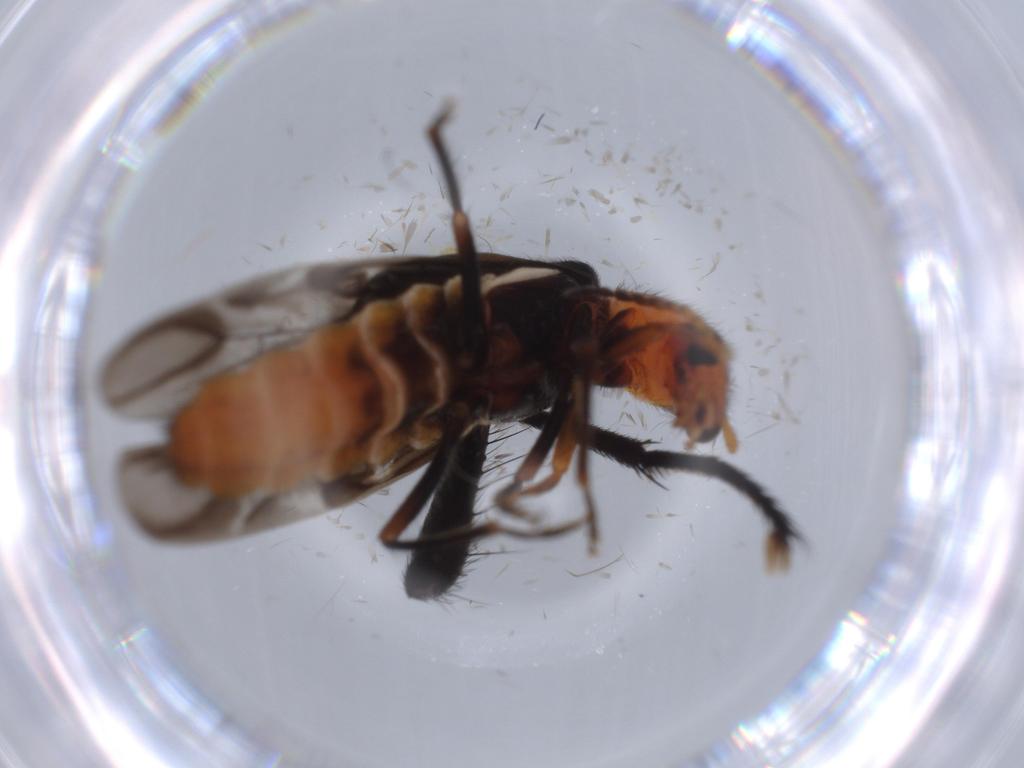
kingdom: Animalia
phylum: Arthropoda
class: Insecta
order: Coleoptera
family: Melyridae
